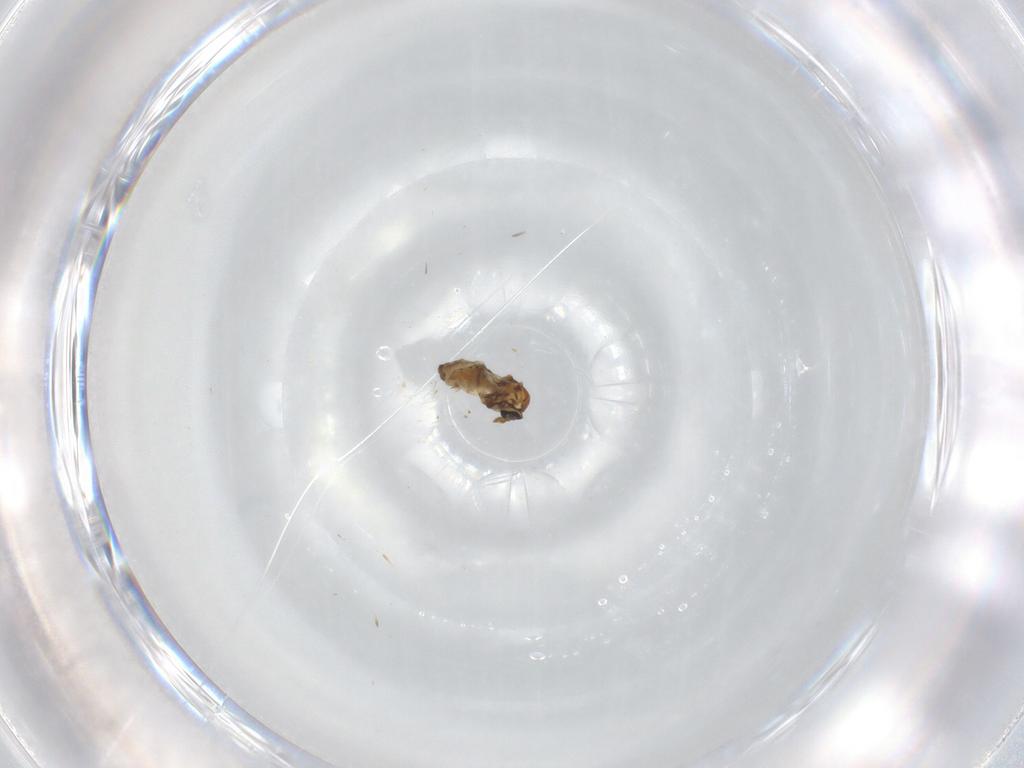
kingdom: Animalia
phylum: Arthropoda
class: Insecta
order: Diptera
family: Ceratopogonidae
